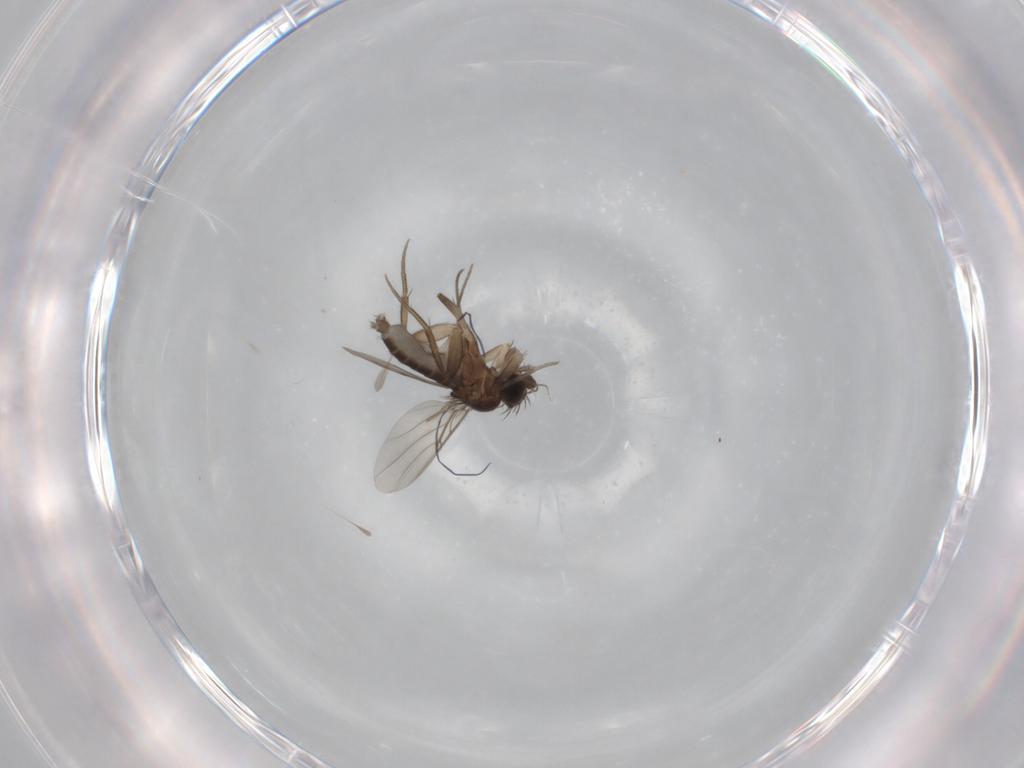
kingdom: Animalia
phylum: Arthropoda
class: Insecta
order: Diptera
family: Phoridae
